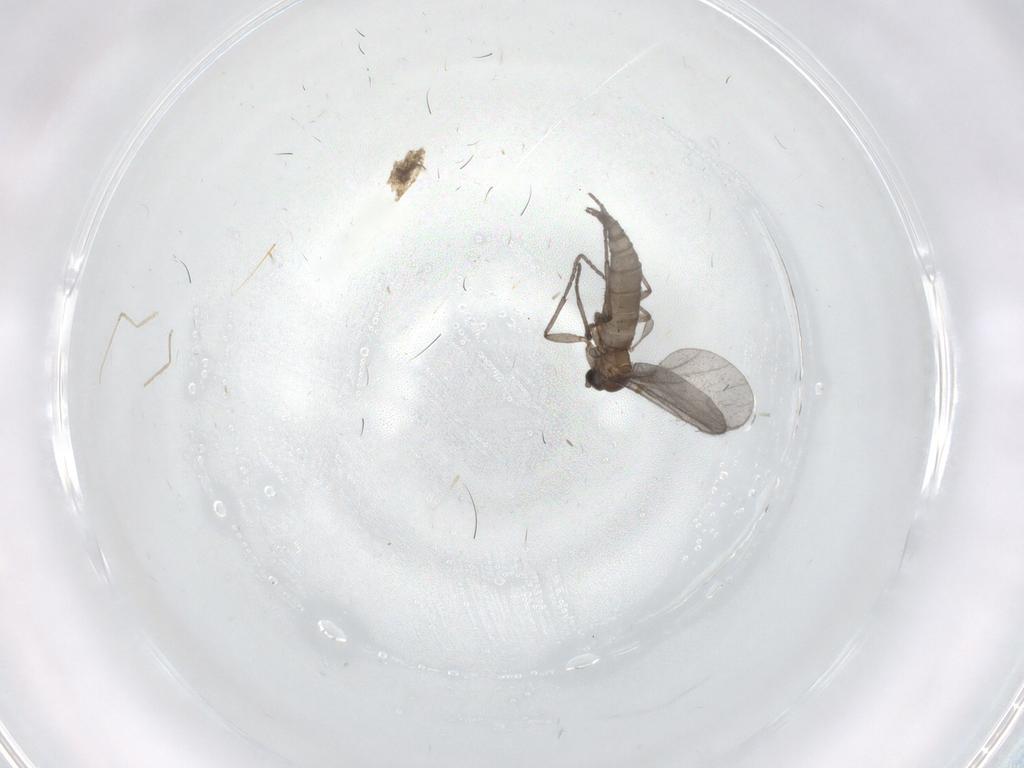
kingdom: Animalia
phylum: Arthropoda
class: Insecta
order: Diptera
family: Sciaridae
